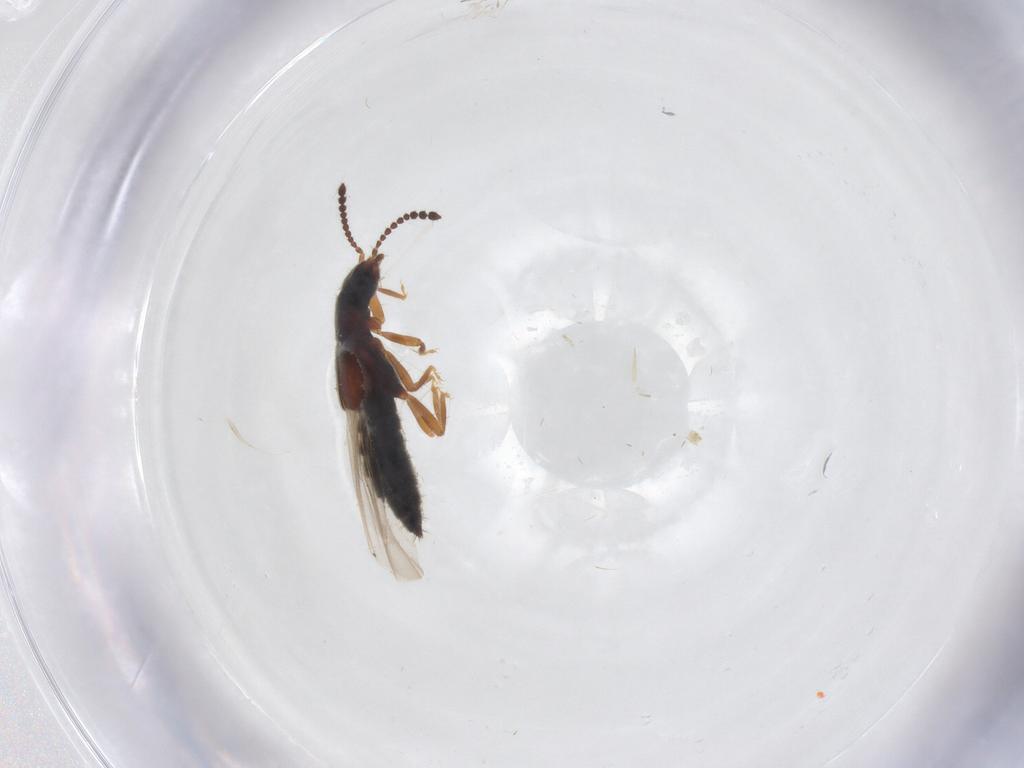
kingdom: Animalia
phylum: Arthropoda
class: Insecta
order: Coleoptera
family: Staphylinidae
